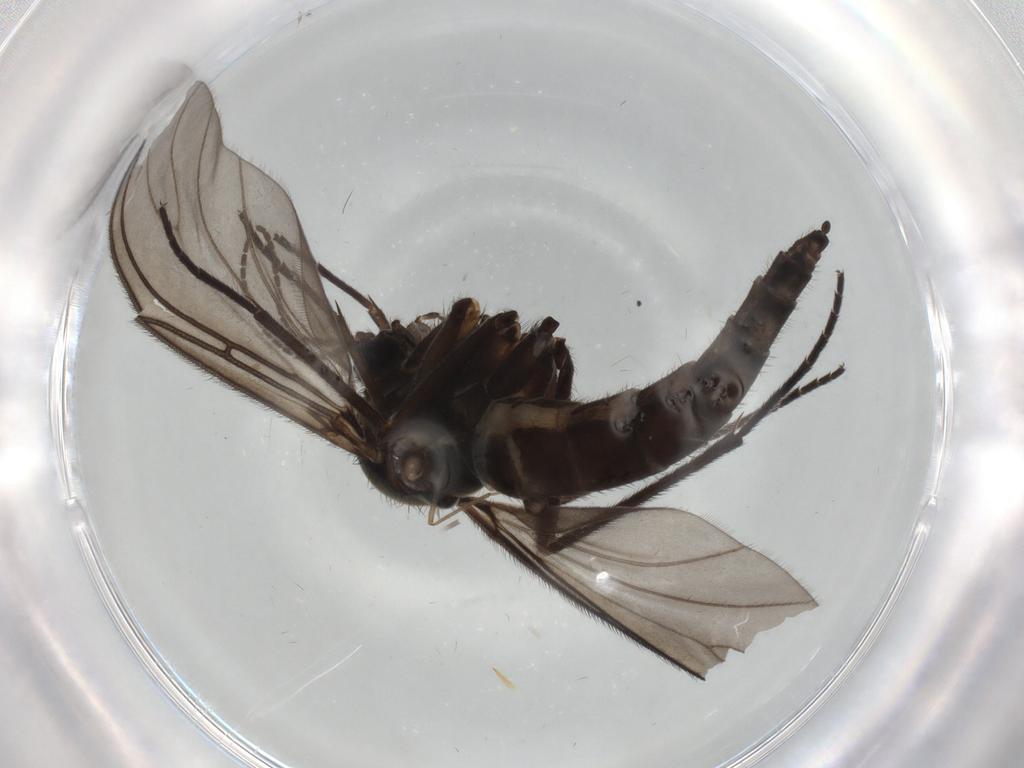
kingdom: Animalia
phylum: Arthropoda
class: Insecta
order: Diptera
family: Sciaridae
